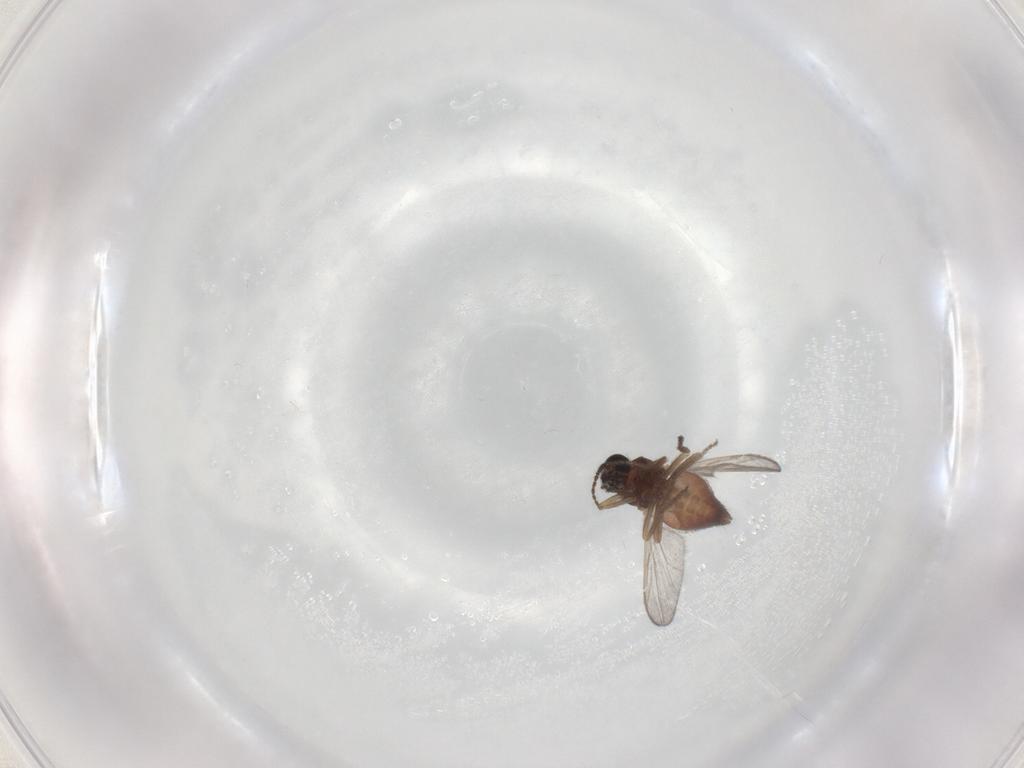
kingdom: Animalia
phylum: Arthropoda
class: Insecta
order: Diptera
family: Ceratopogonidae
